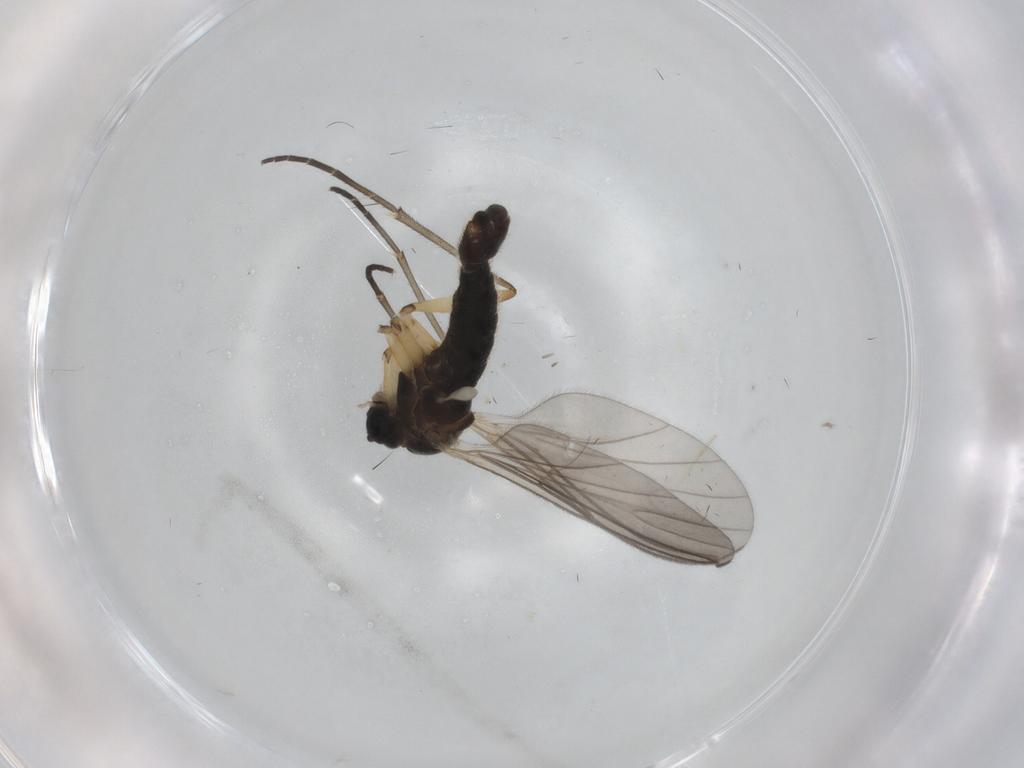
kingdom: Animalia
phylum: Arthropoda
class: Insecta
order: Diptera
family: Sciaridae
